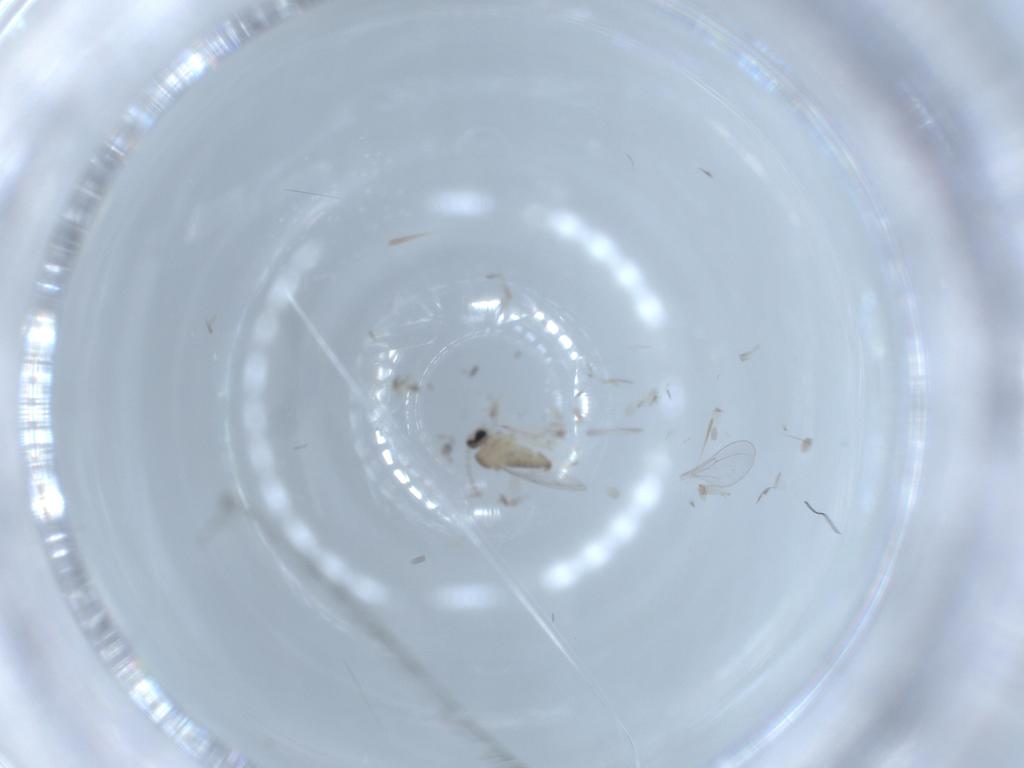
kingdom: Animalia
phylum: Arthropoda
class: Insecta
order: Diptera
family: Cecidomyiidae
